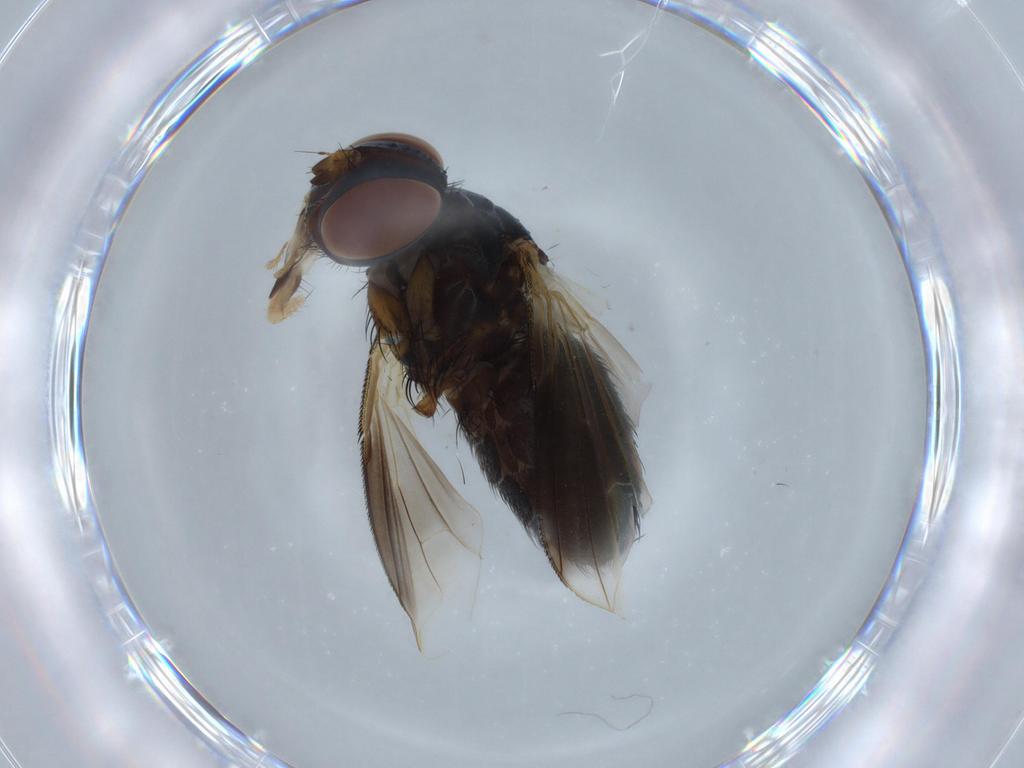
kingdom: Animalia
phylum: Arthropoda
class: Insecta
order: Diptera
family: Tachinidae
